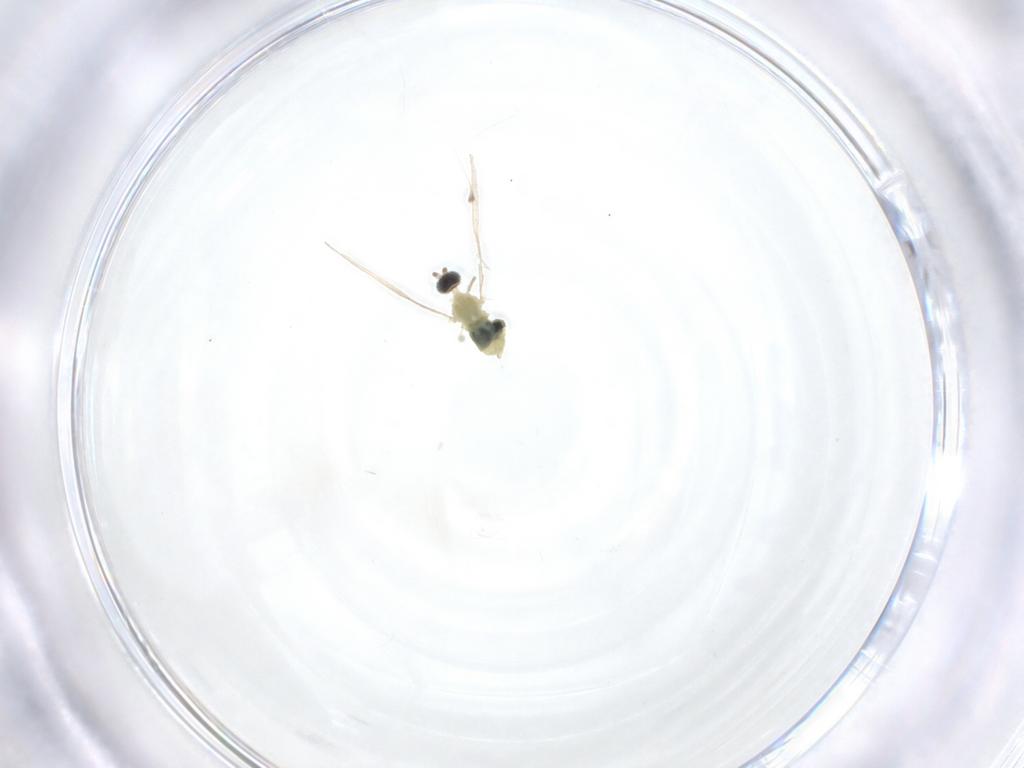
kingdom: Animalia
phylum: Arthropoda
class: Insecta
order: Diptera
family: Cecidomyiidae
